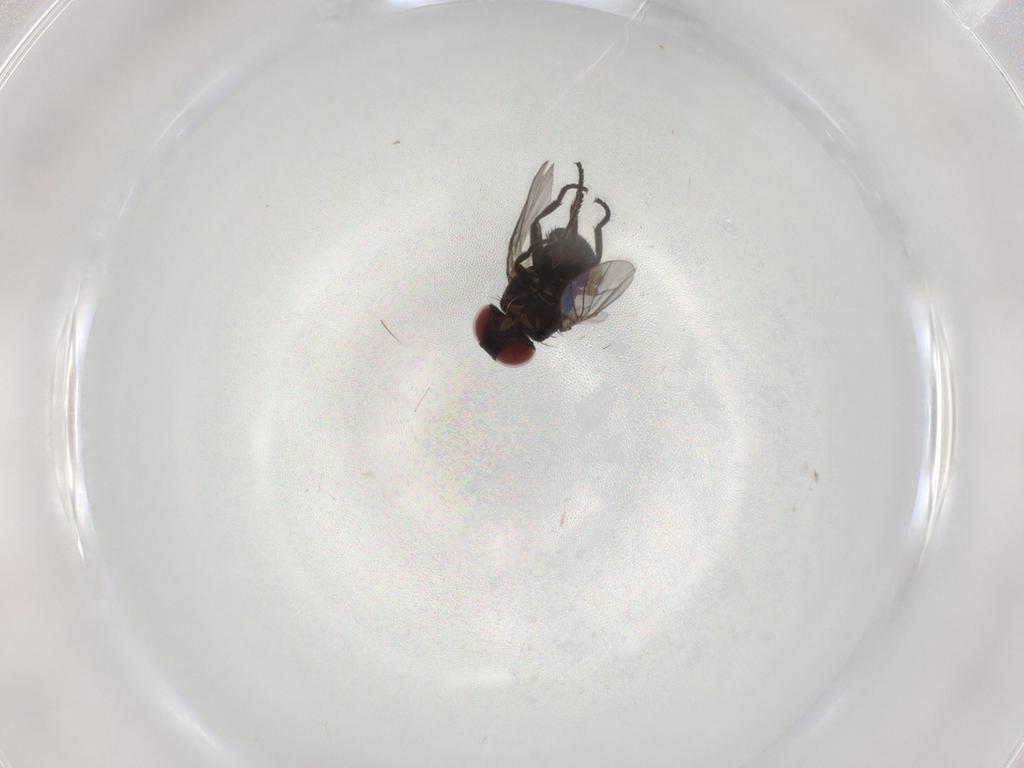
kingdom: Animalia
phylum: Arthropoda
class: Insecta
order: Diptera
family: Agromyzidae
